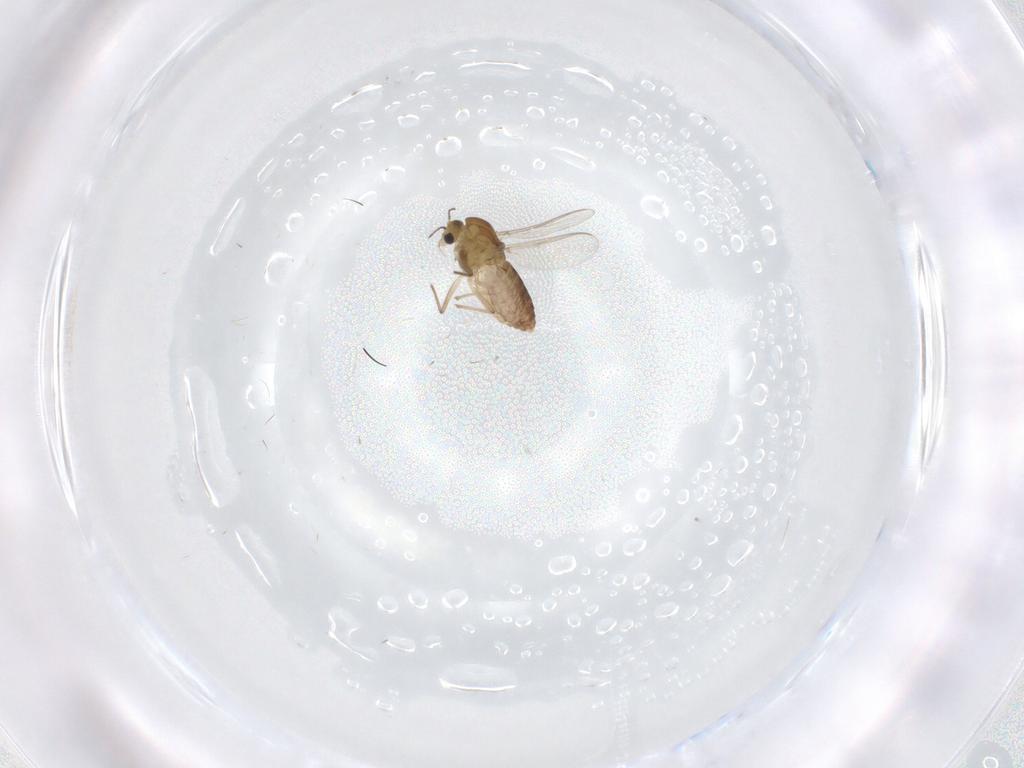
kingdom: Animalia
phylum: Arthropoda
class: Insecta
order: Diptera
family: Chironomidae
